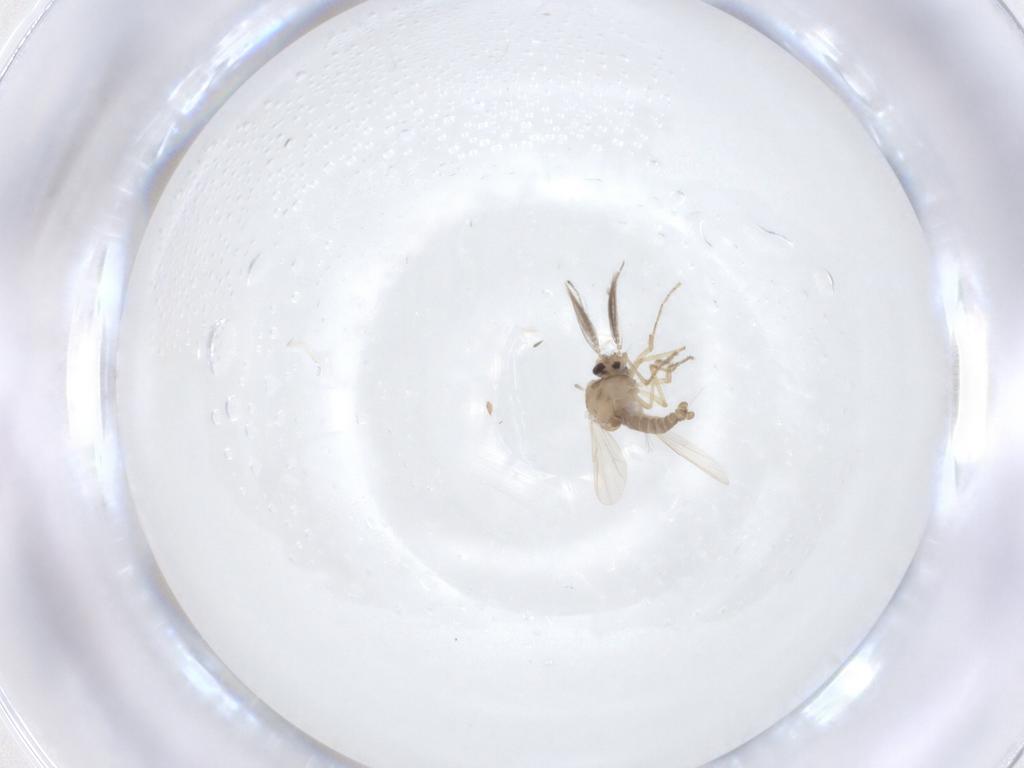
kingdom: Animalia
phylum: Arthropoda
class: Insecta
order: Diptera
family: Ceratopogonidae
